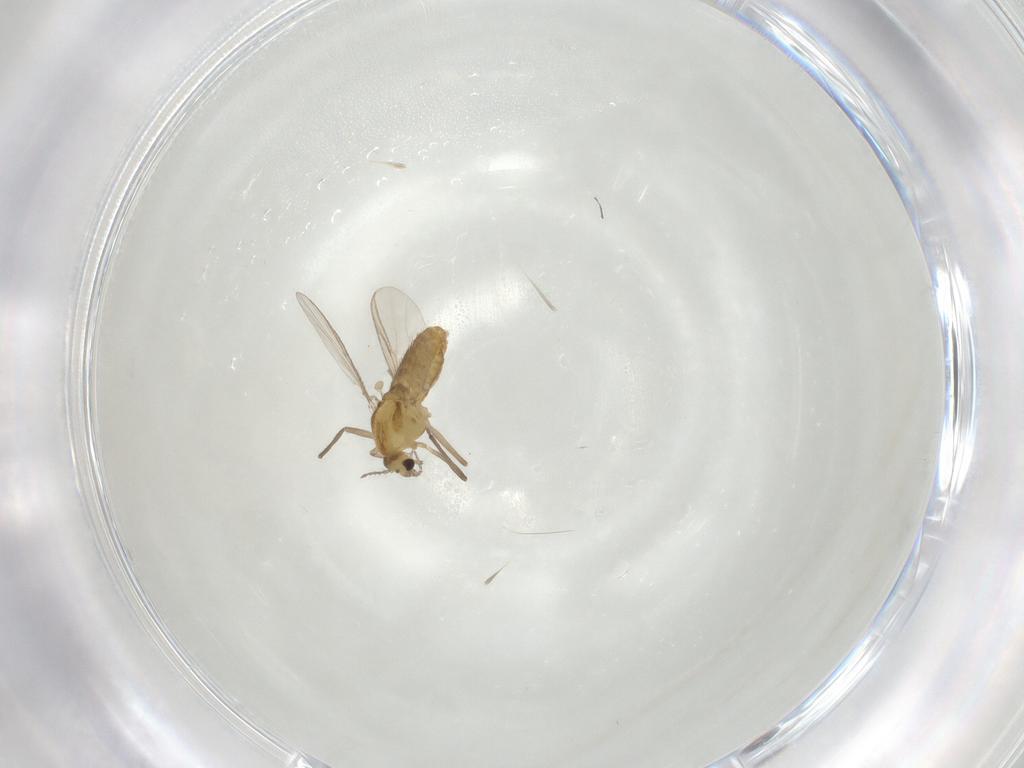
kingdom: Animalia
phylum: Arthropoda
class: Insecta
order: Diptera
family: Chironomidae
